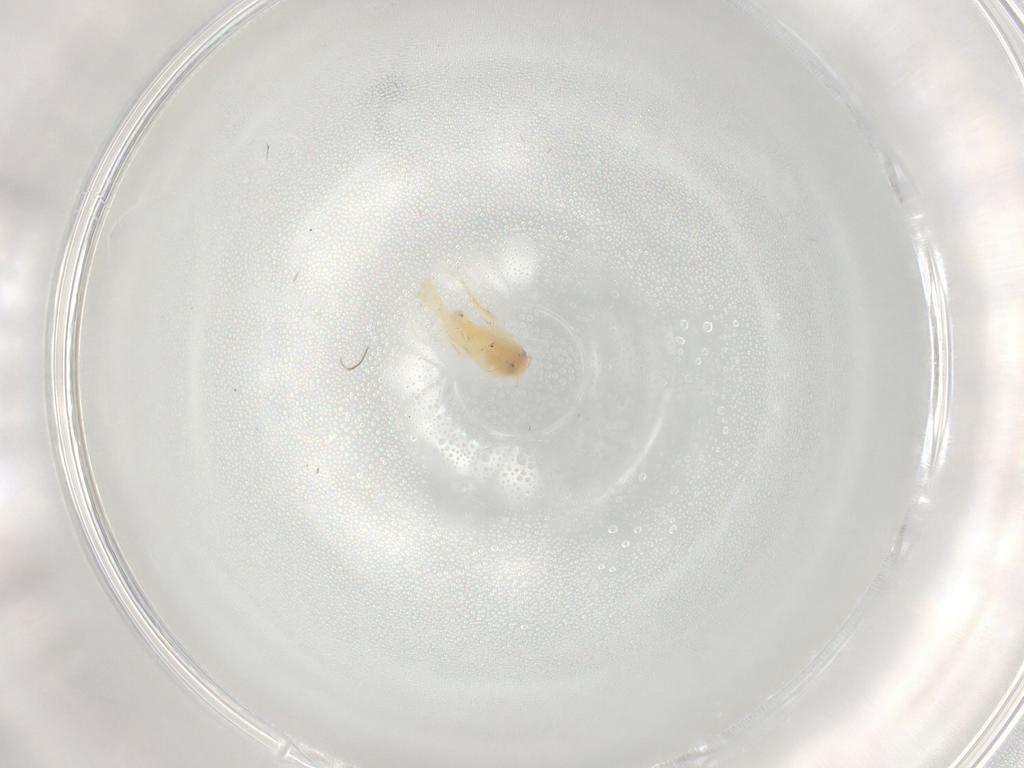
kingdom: Animalia
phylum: Arthropoda
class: Insecta
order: Hemiptera
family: Aleyrodidae
